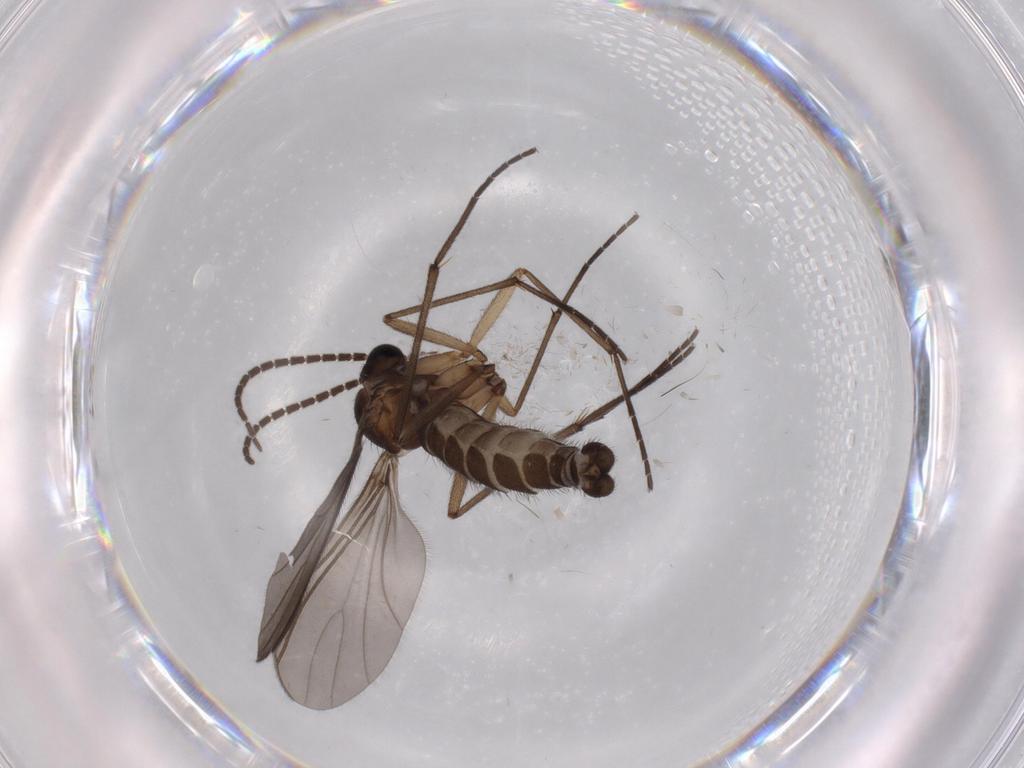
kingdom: Animalia
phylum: Arthropoda
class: Insecta
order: Diptera
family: Sciaridae
